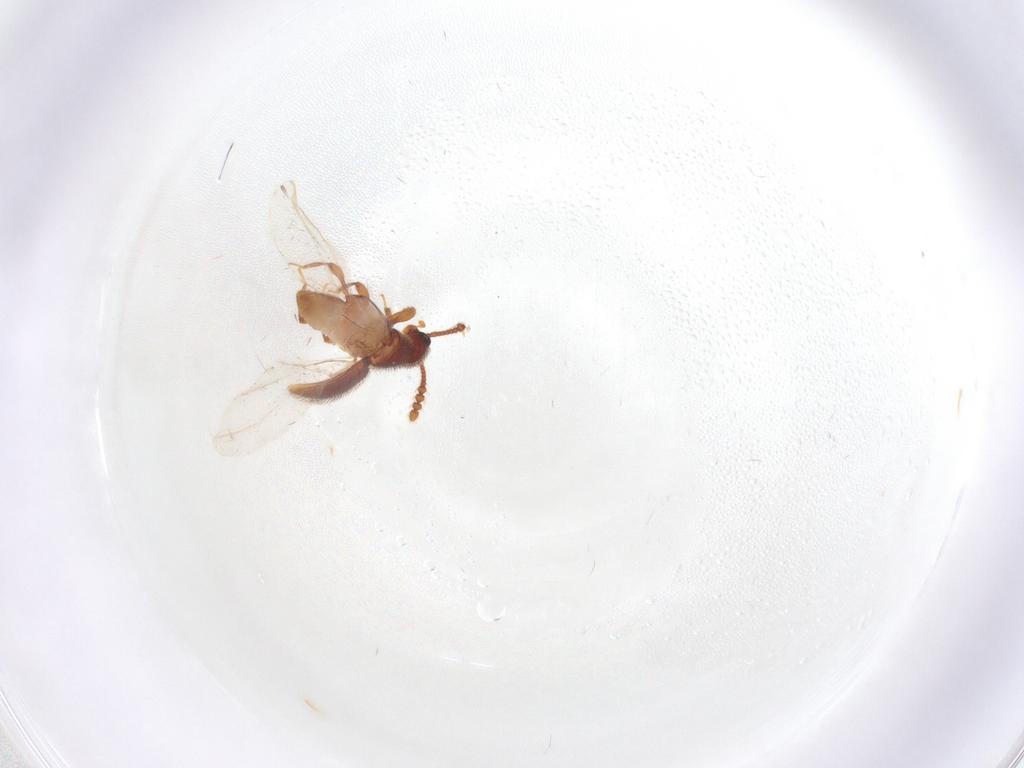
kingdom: Animalia
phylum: Arthropoda
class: Insecta
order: Coleoptera
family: Staphylinidae
